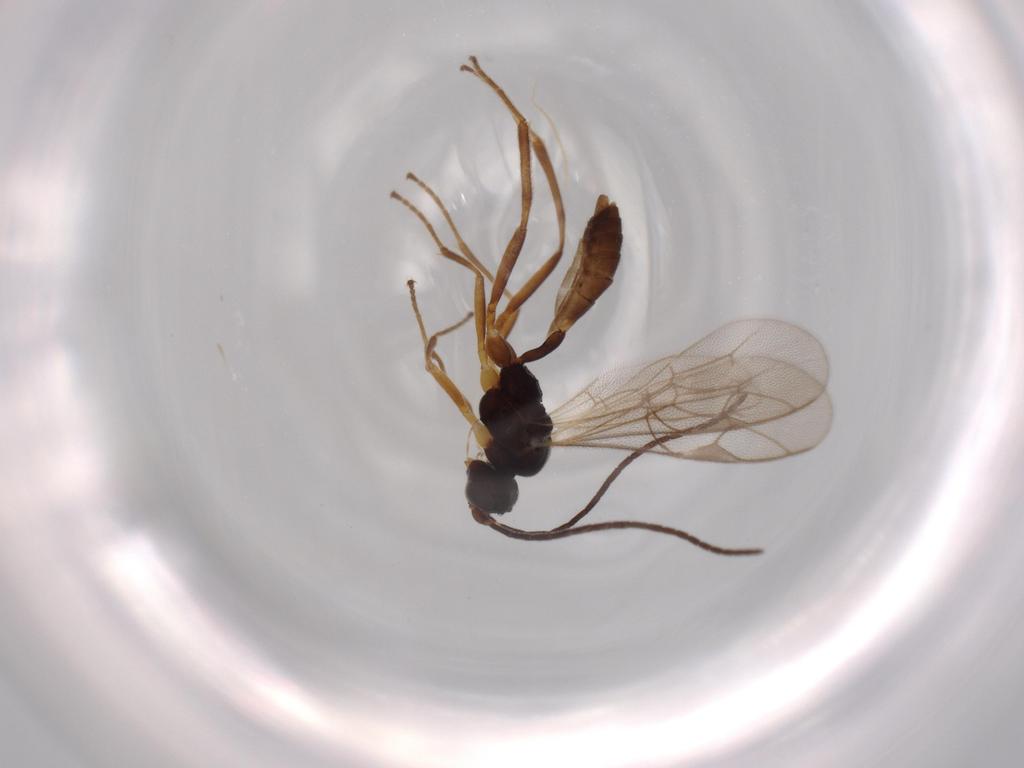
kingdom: Animalia
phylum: Arthropoda
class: Insecta
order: Hymenoptera
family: Ichneumonidae
